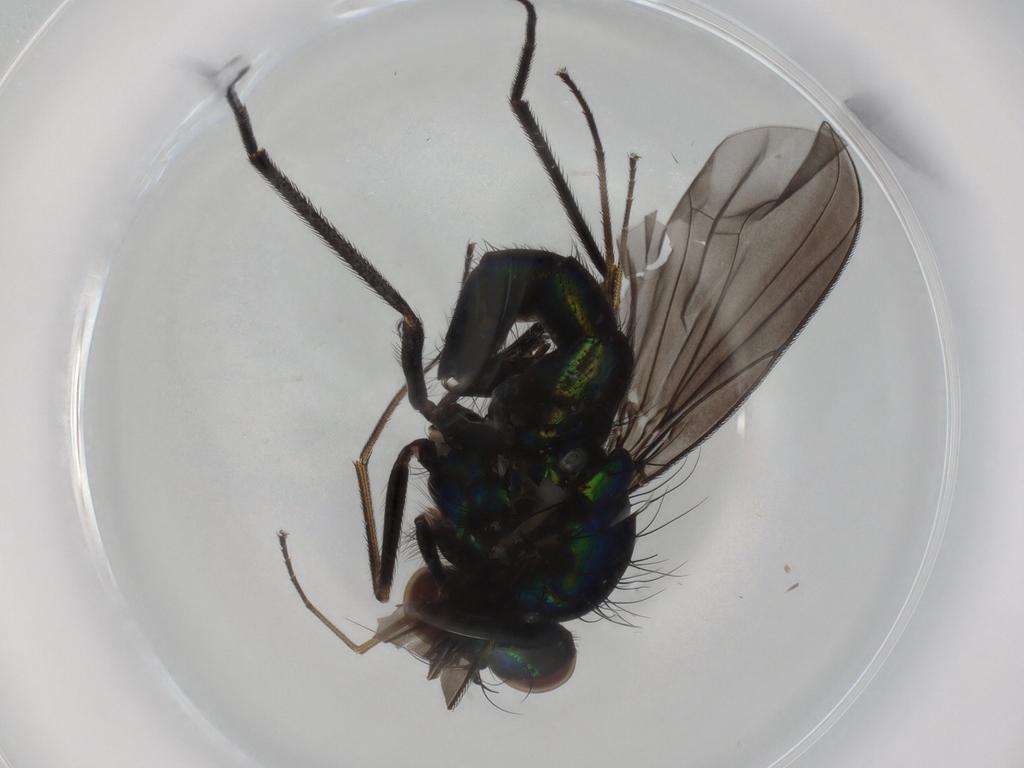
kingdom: Animalia
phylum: Arthropoda
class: Insecta
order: Diptera
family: Dolichopodidae
